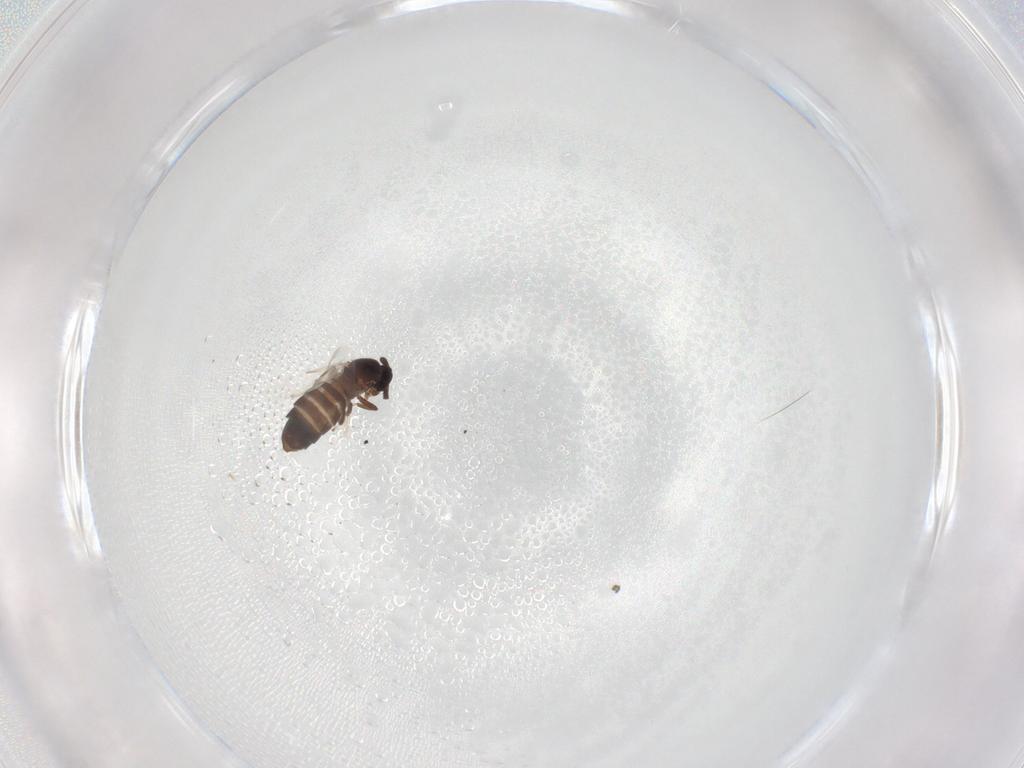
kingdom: Animalia
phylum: Arthropoda
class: Insecta
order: Diptera
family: Scatopsidae
